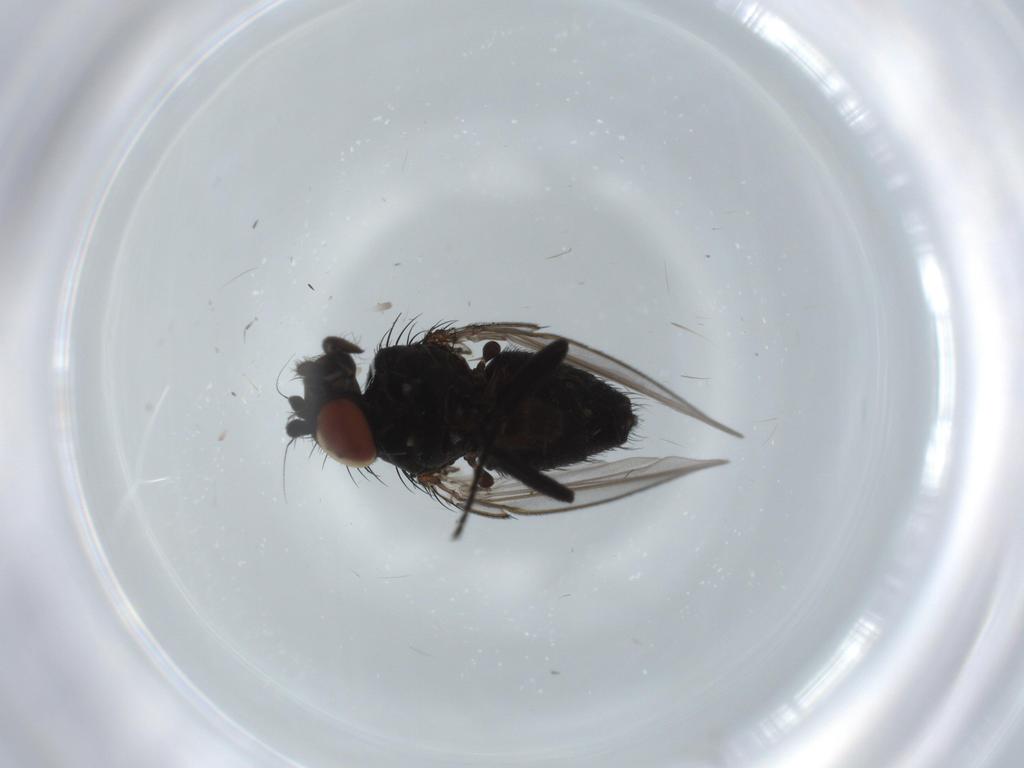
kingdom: Animalia
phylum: Arthropoda
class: Insecta
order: Diptera
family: Milichiidae
